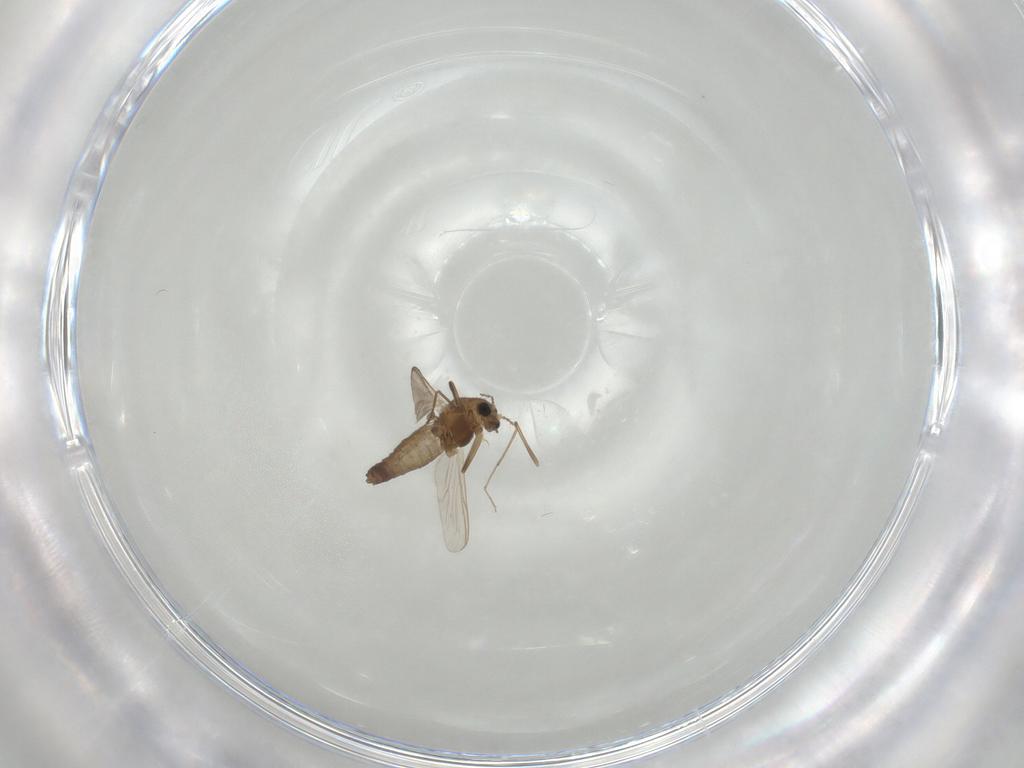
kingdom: Animalia
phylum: Arthropoda
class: Insecta
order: Diptera
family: Chironomidae
